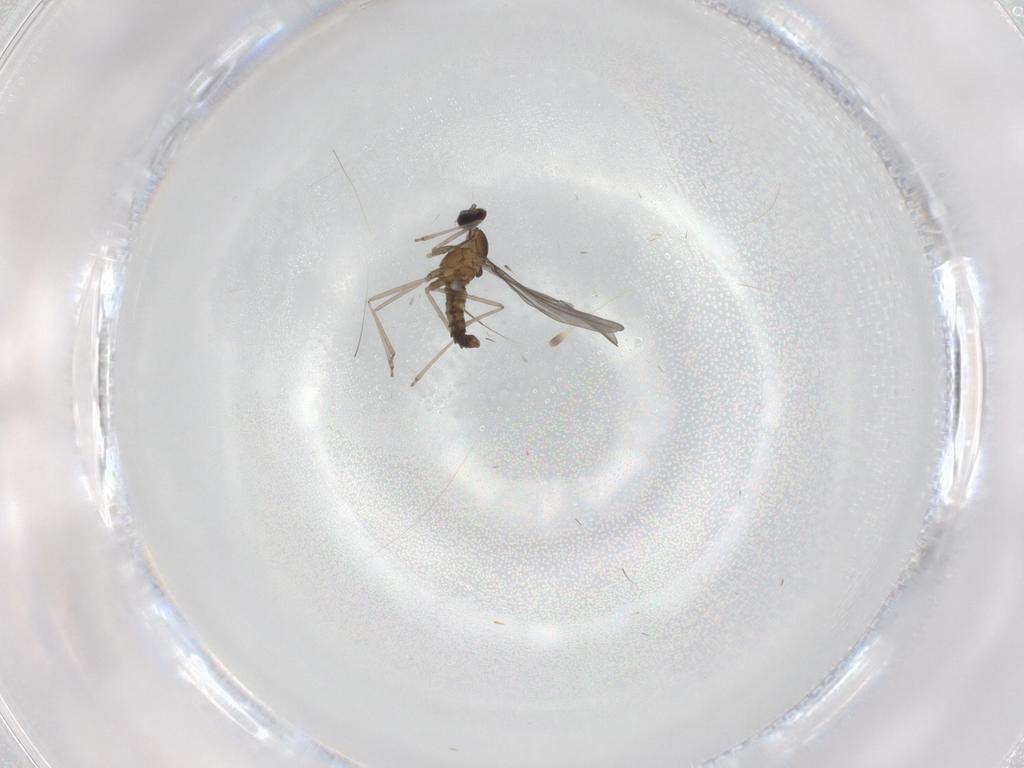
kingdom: Animalia
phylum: Arthropoda
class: Insecta
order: Diptera
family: Cecidomyiidae
